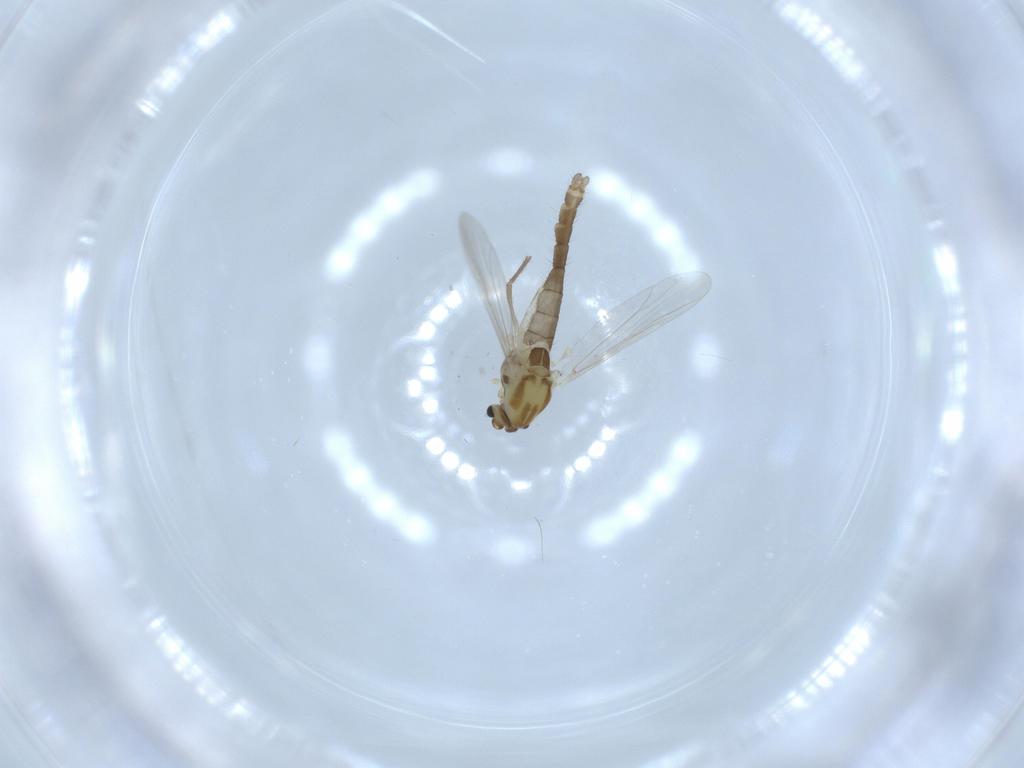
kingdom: Animalia
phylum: Arthropoda
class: Insecta
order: Diptera
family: Chironomidae
